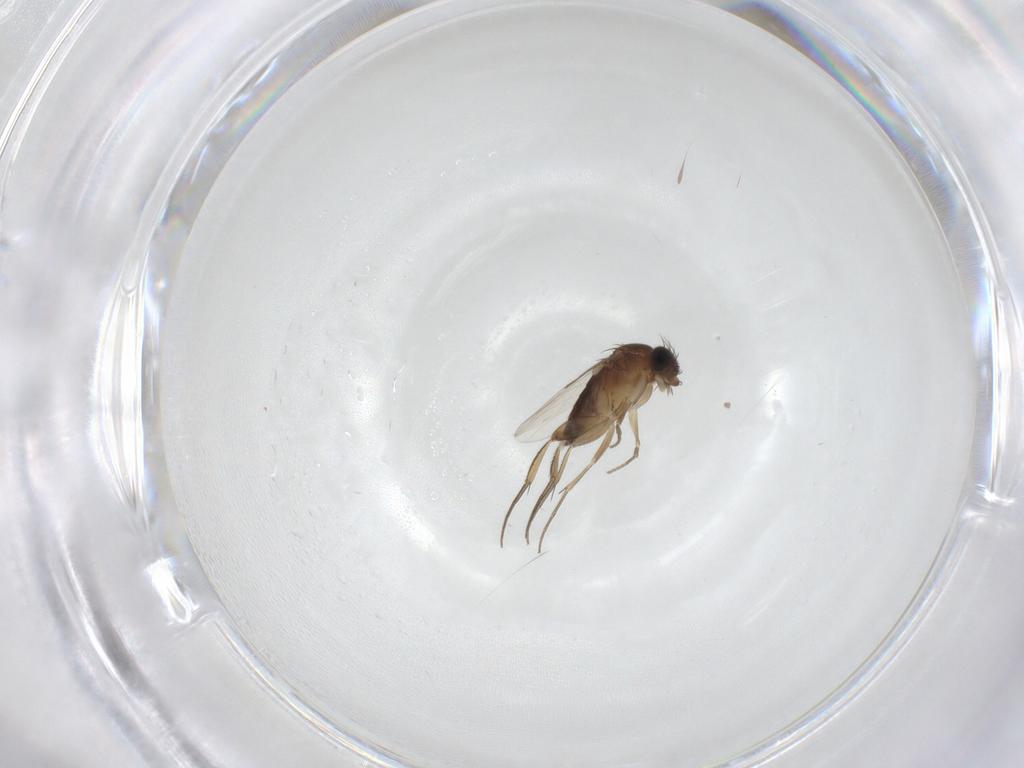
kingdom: Animalia
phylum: Arthropoda
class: Insecta
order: Diptera
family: Phoridae
